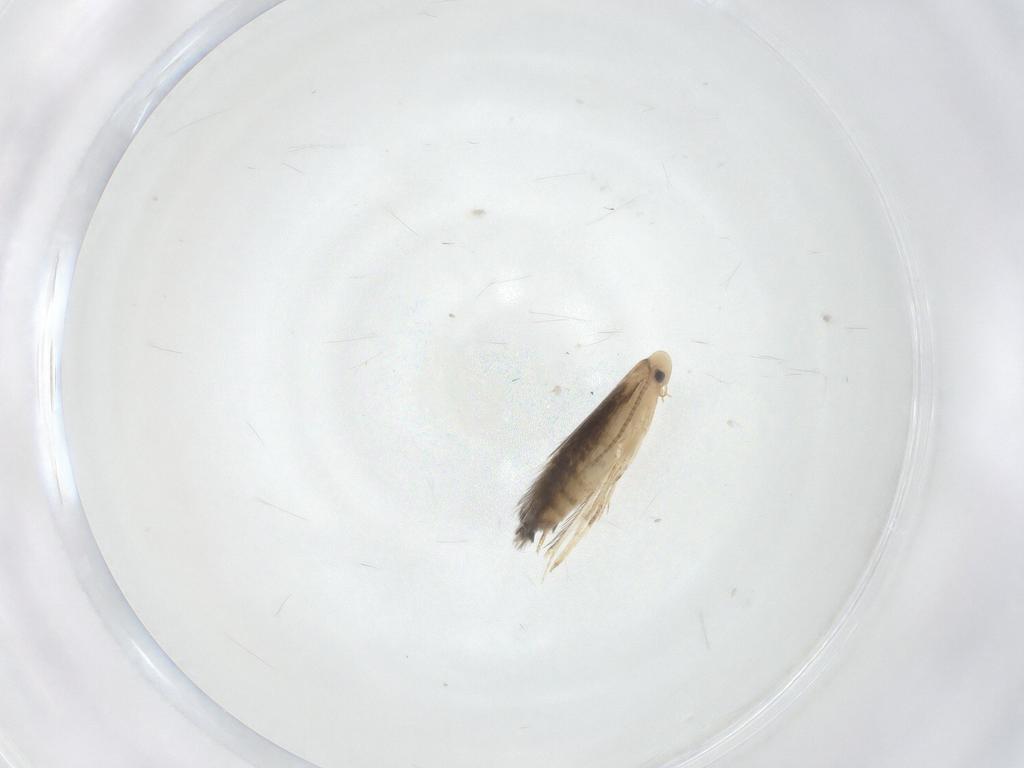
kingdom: Animalia
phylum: Arthropoda
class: Insecta
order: Lepidoptera
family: Gracillariidae
